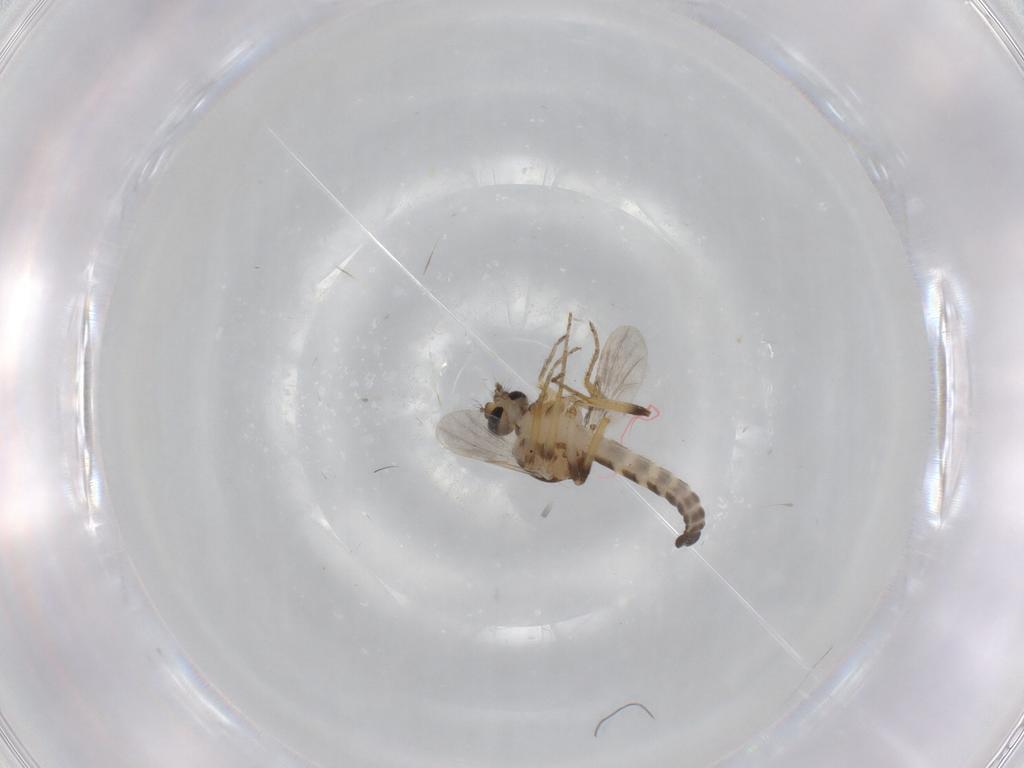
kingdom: Animalia
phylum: Arthropoda
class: Insecta
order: Diptera
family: Ceratopogonidae
